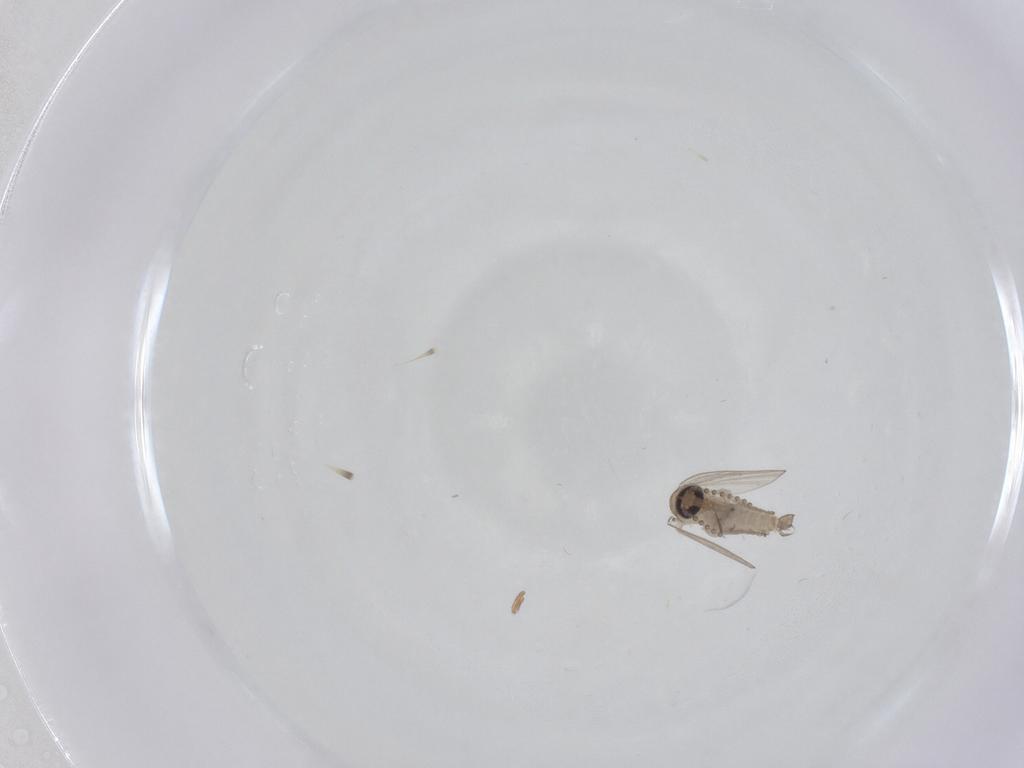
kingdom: Animalia
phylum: Arthropoda
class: Insecta
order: Diptera
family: Psychodidae
